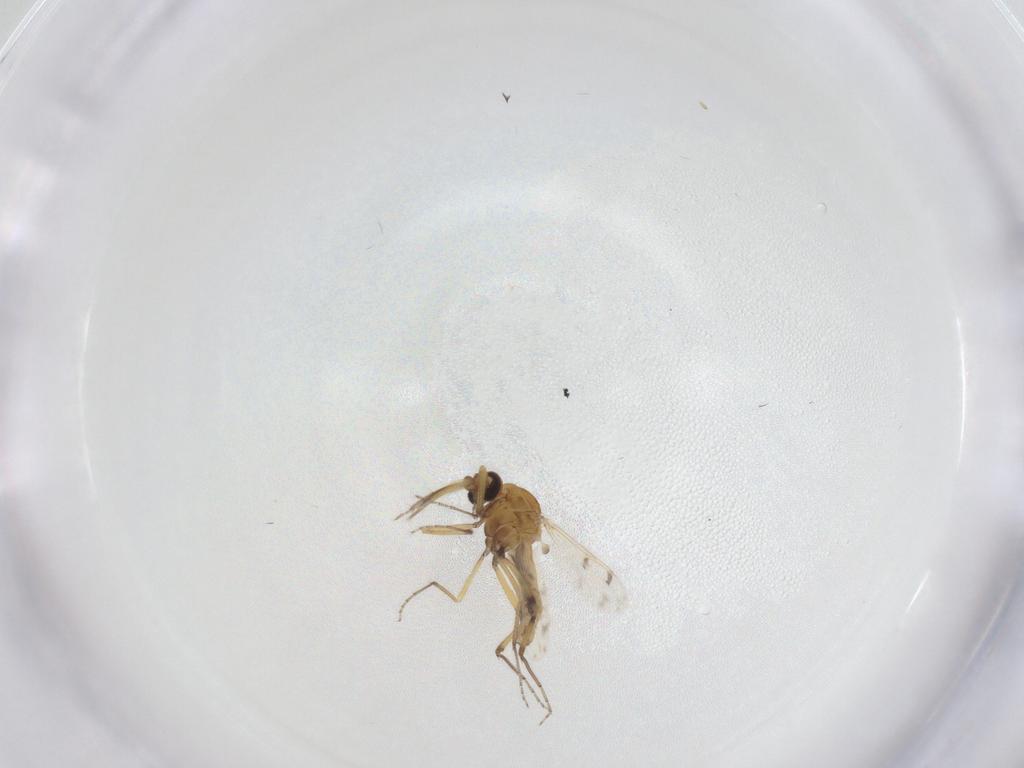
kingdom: Animalia
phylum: Arthropoda
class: Insecta
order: Diptera
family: Ceratopogonidae
